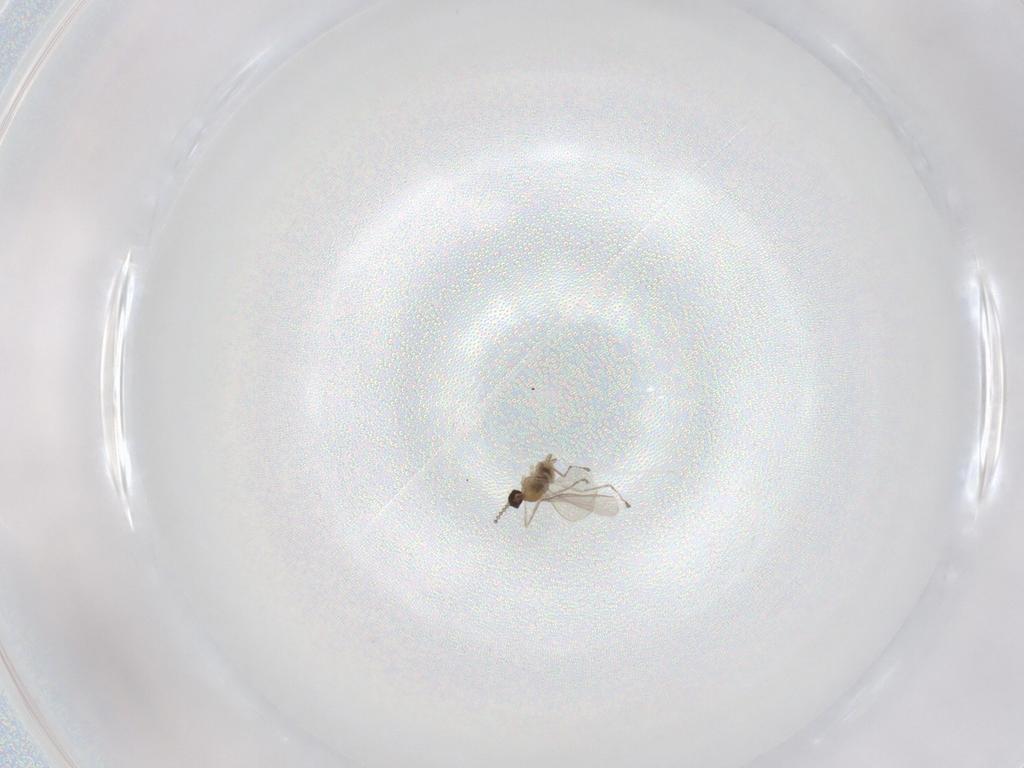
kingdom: Animalia
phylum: Arthropoda
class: Insecta
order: Diptera
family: Cecidomyiidae
